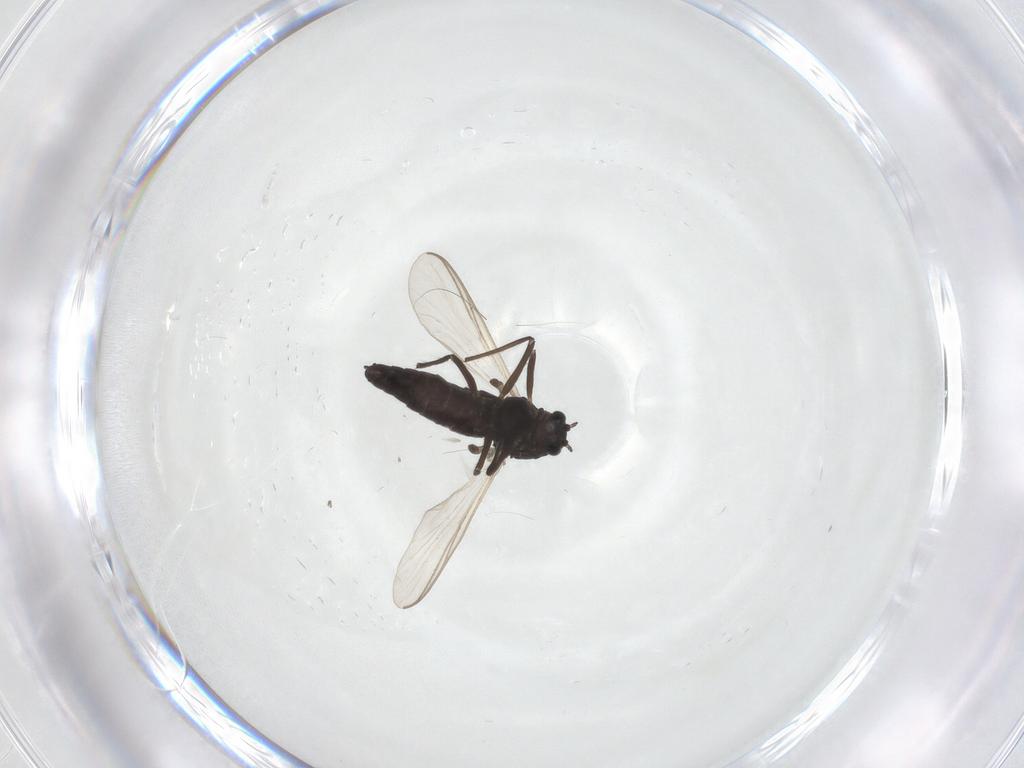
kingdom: Animalia
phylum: Arthropoda
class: Insecta
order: Diptera
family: Chironomidae
